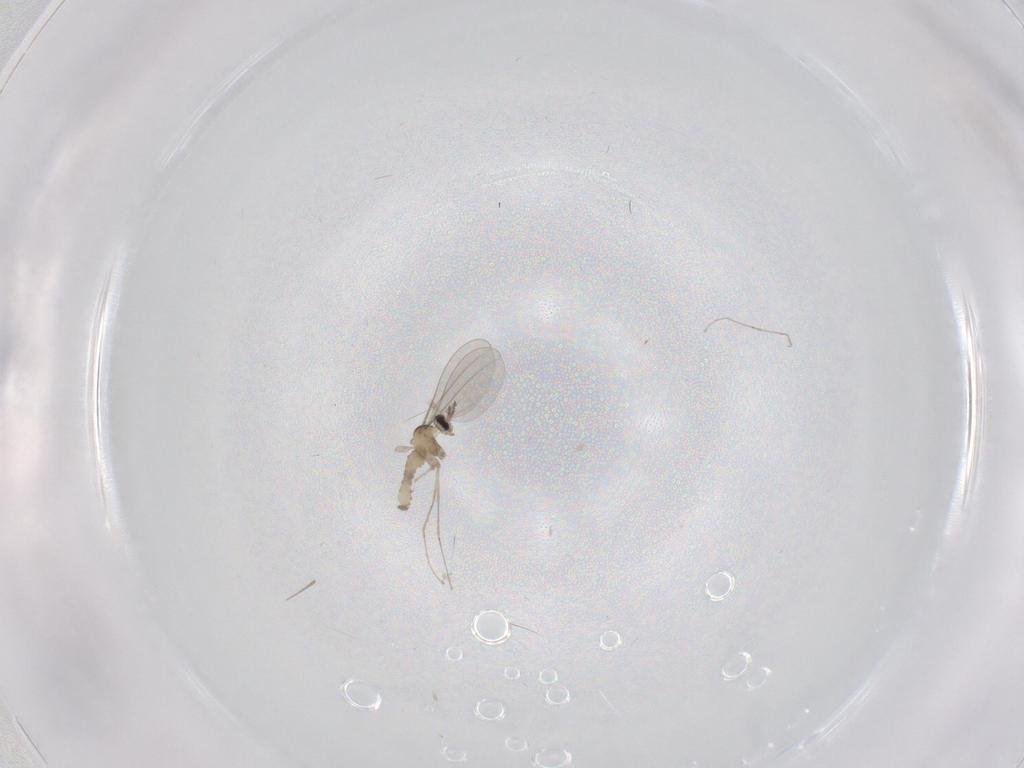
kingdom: Animalia
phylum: Arthropoda
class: Insecta
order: Diptera
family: Cecidomyiidae
